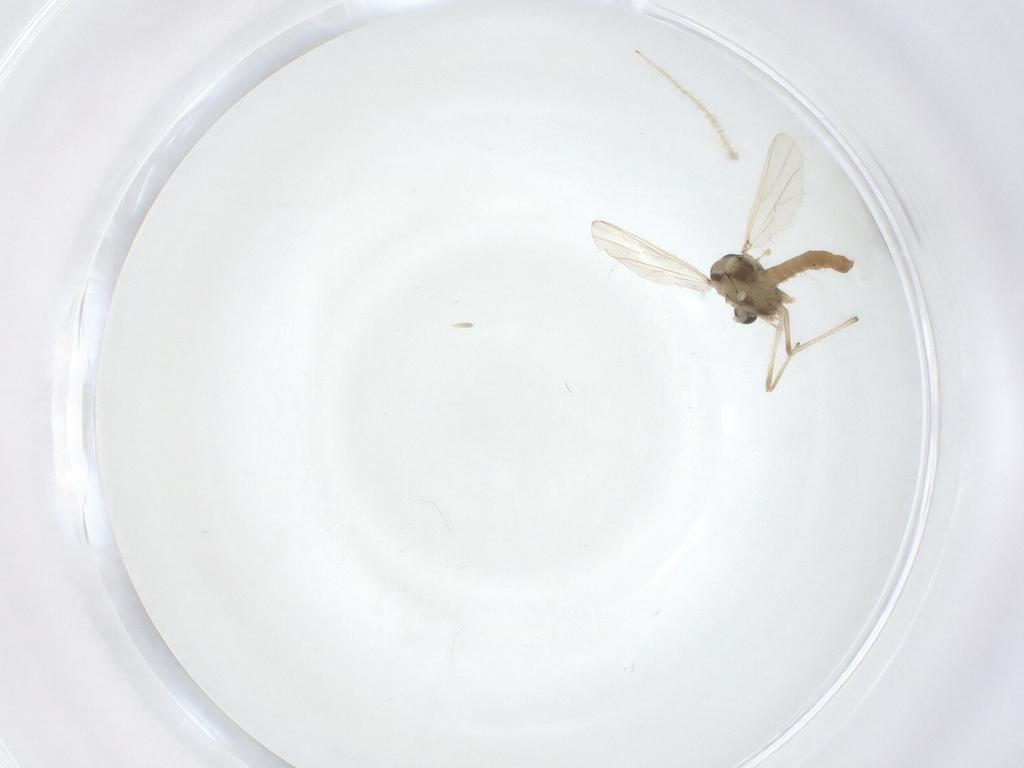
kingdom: Animalia
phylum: Arthropoda
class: Insecta
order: Diptera
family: Chironomidae
